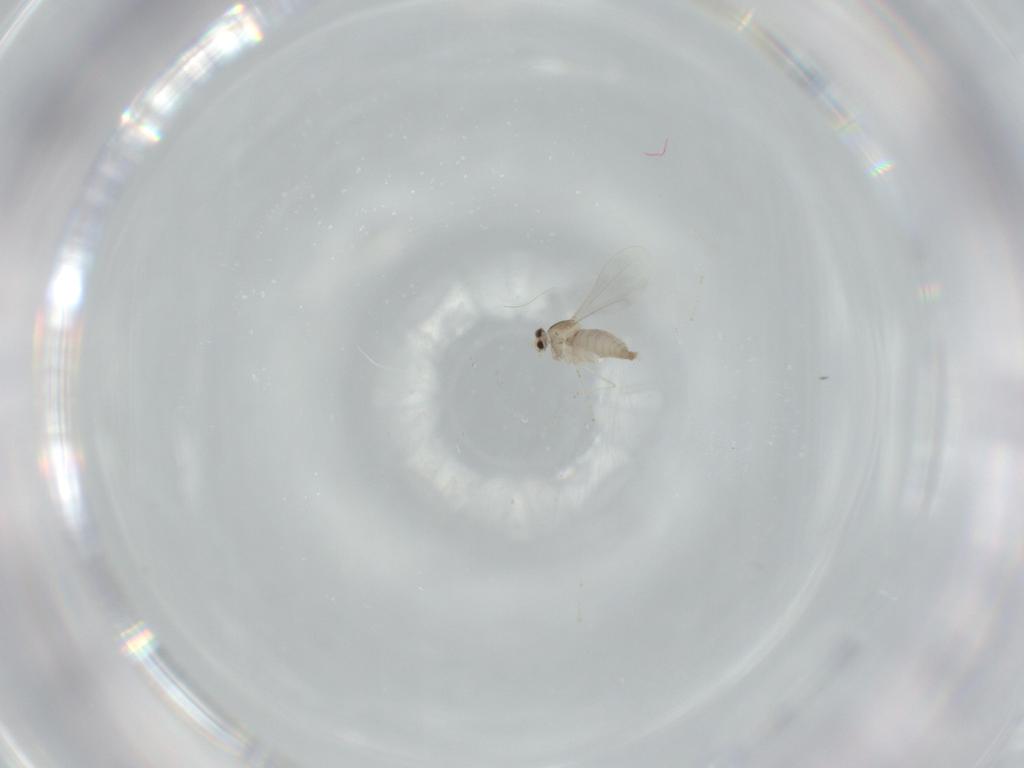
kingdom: Animalia
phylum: Arthropoda
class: Insecta
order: Diptera
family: Cecidomyiidae
